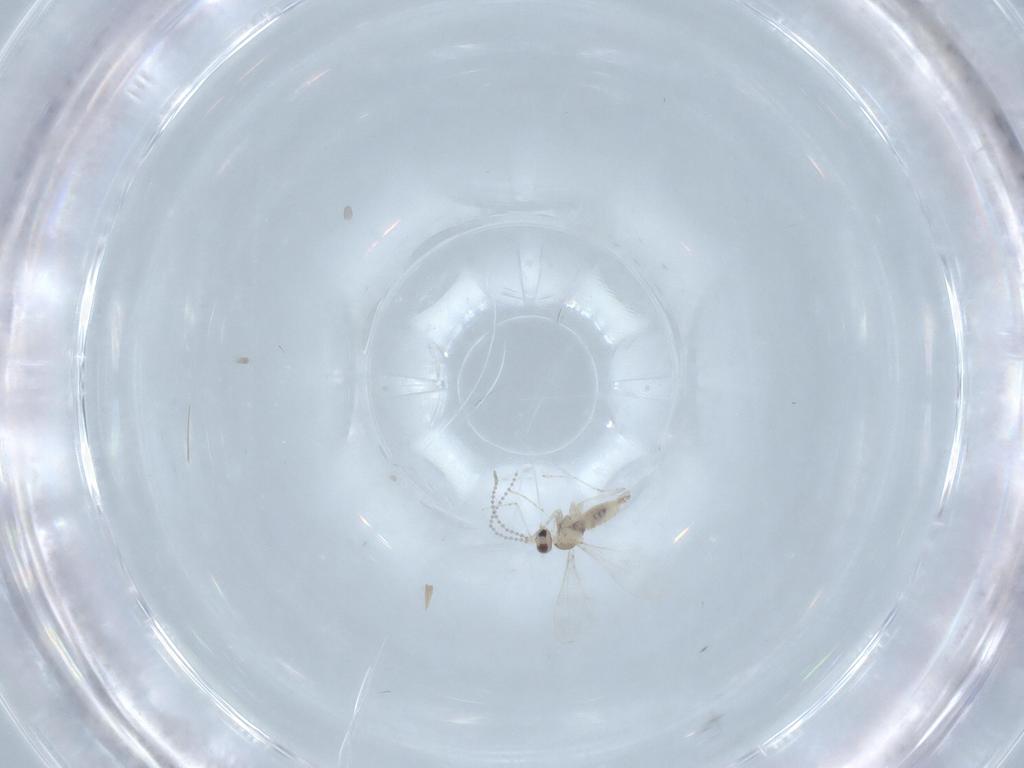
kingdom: Animalia
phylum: Arthropoda
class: Insecta
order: Diptera
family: Cecidomyiidae
